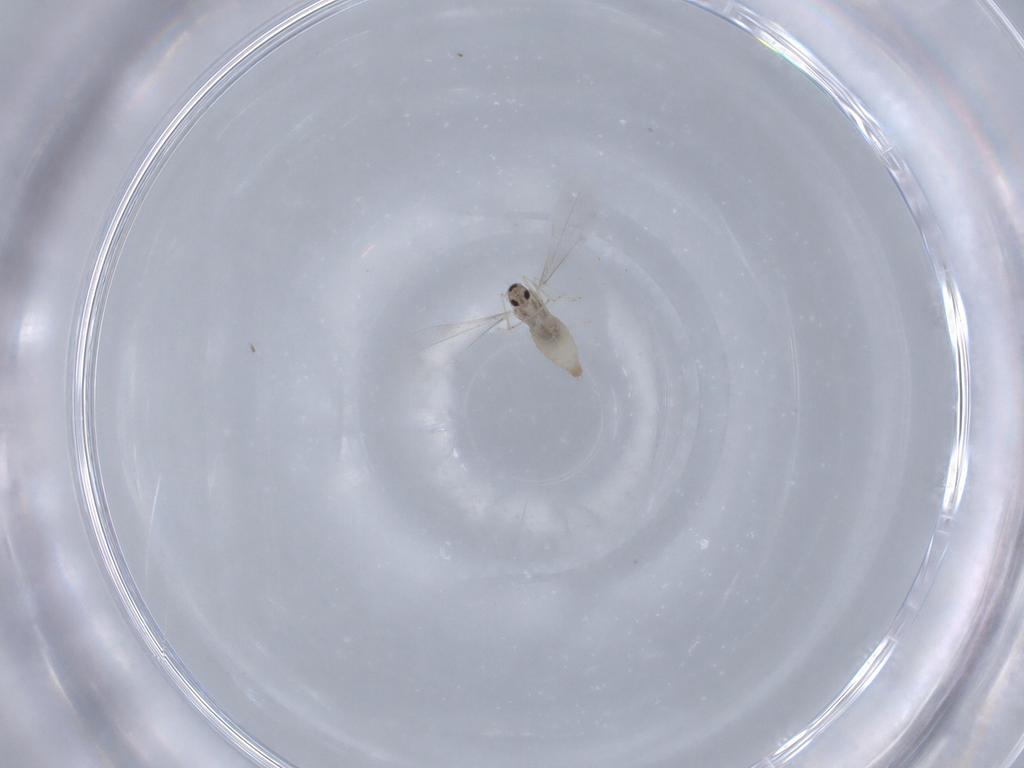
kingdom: Animalia
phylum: Arthropoda
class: Insecta
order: Diptera
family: Cecidomyiidae
